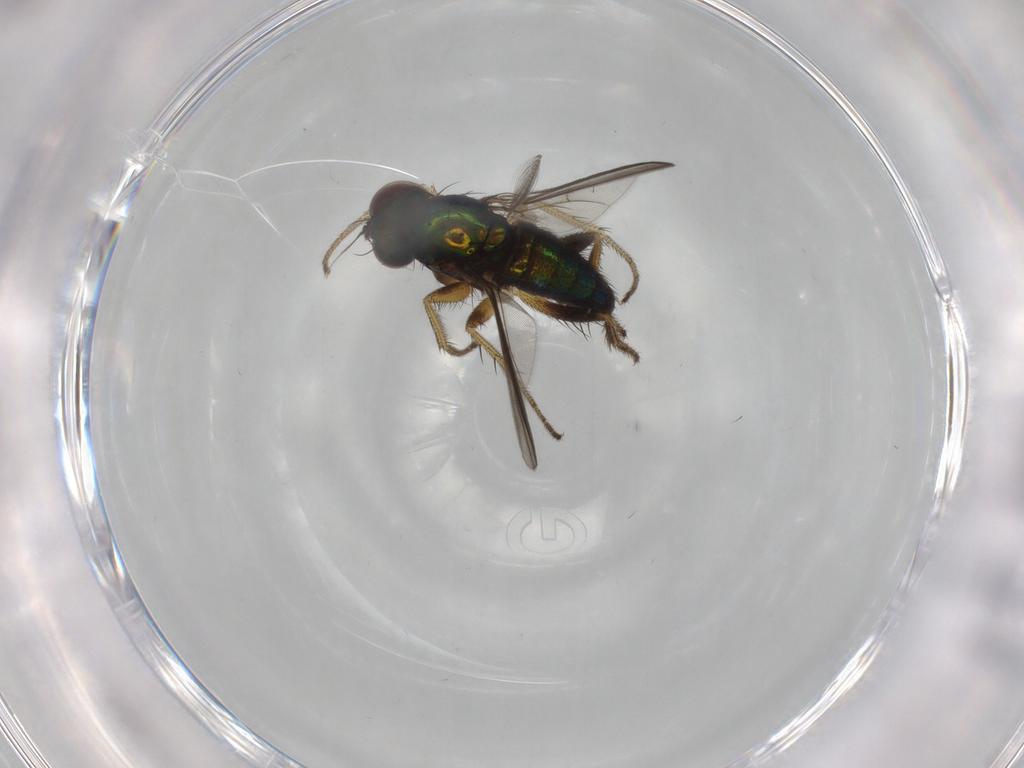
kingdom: Animalia
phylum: Arthropoda
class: Insecta
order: Diptera
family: Dolichopodidae
